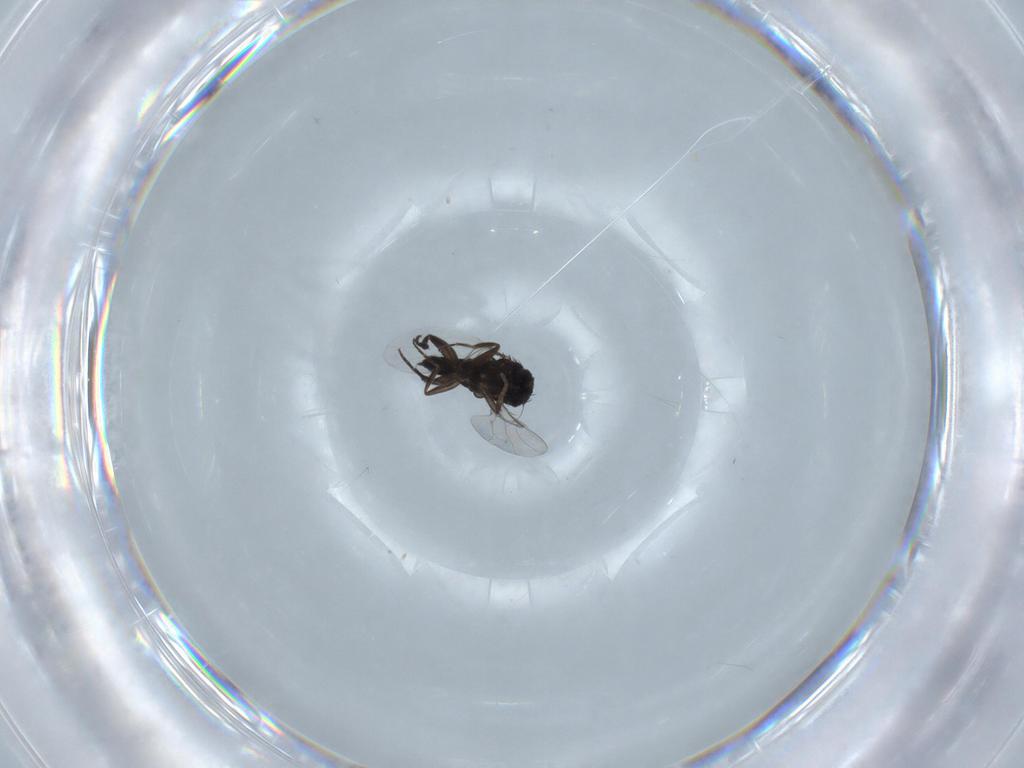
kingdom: Animalia
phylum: Arthropoda
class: Insecta
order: Diptera
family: Phoridae
